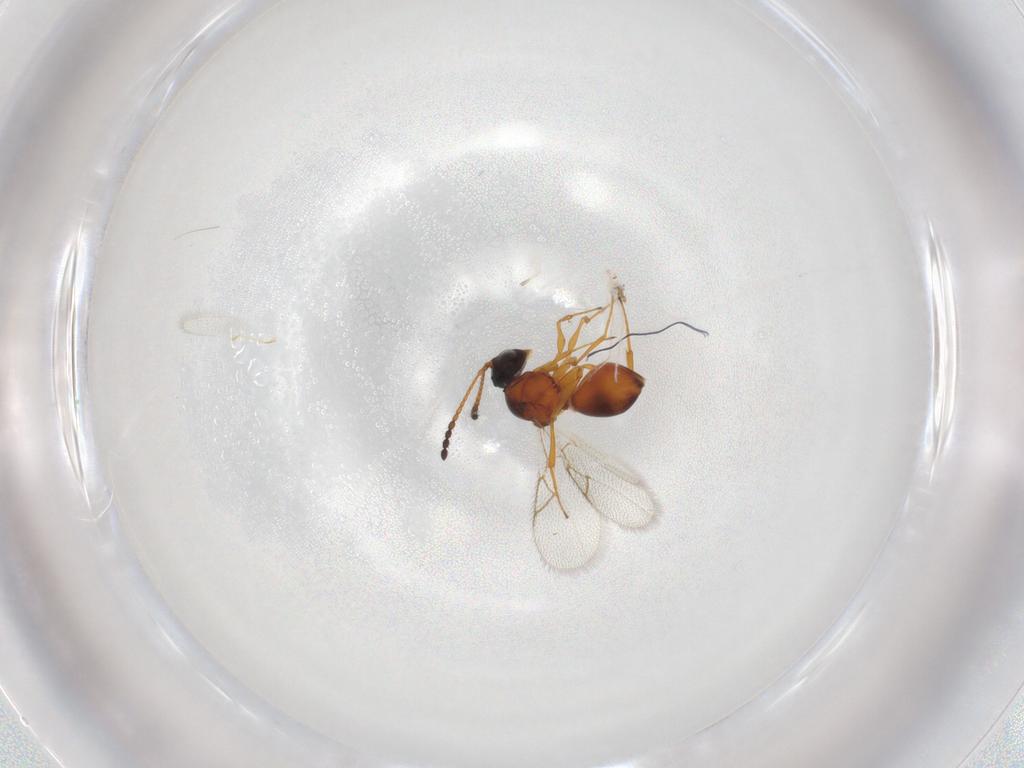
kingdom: Animalia
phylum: Arthropoda
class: Insecta
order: Hymenoptera
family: Figitidae
